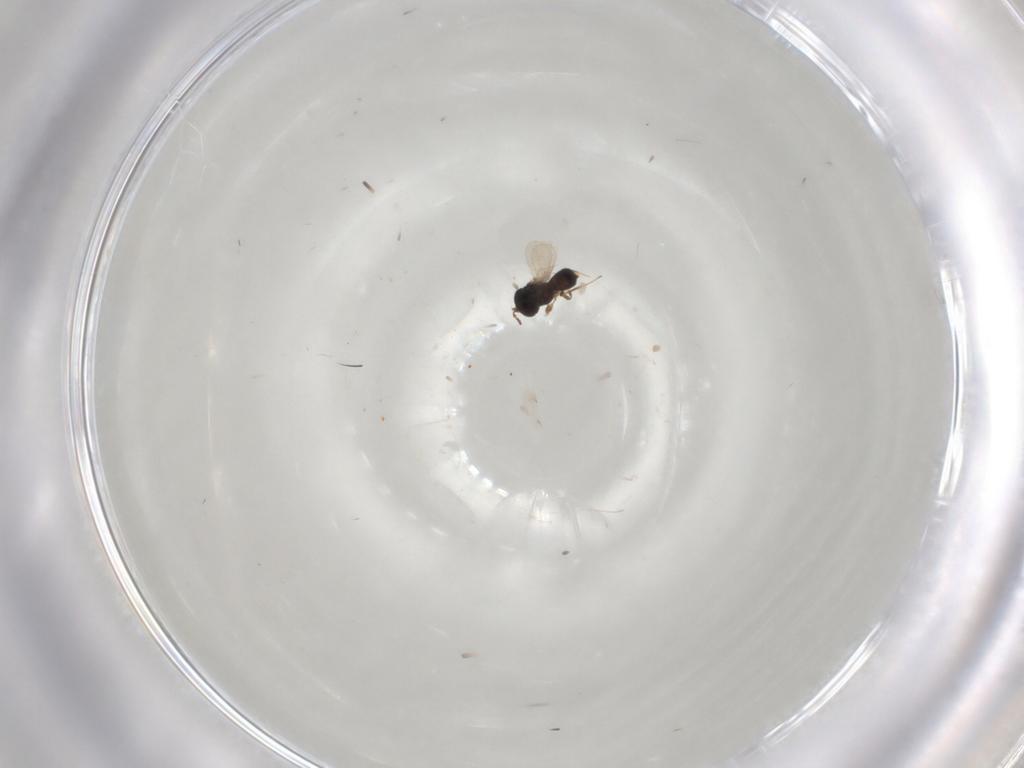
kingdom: Animalia
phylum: Arthropoda
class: Insecta
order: Hymenoptera
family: Scelionidae
